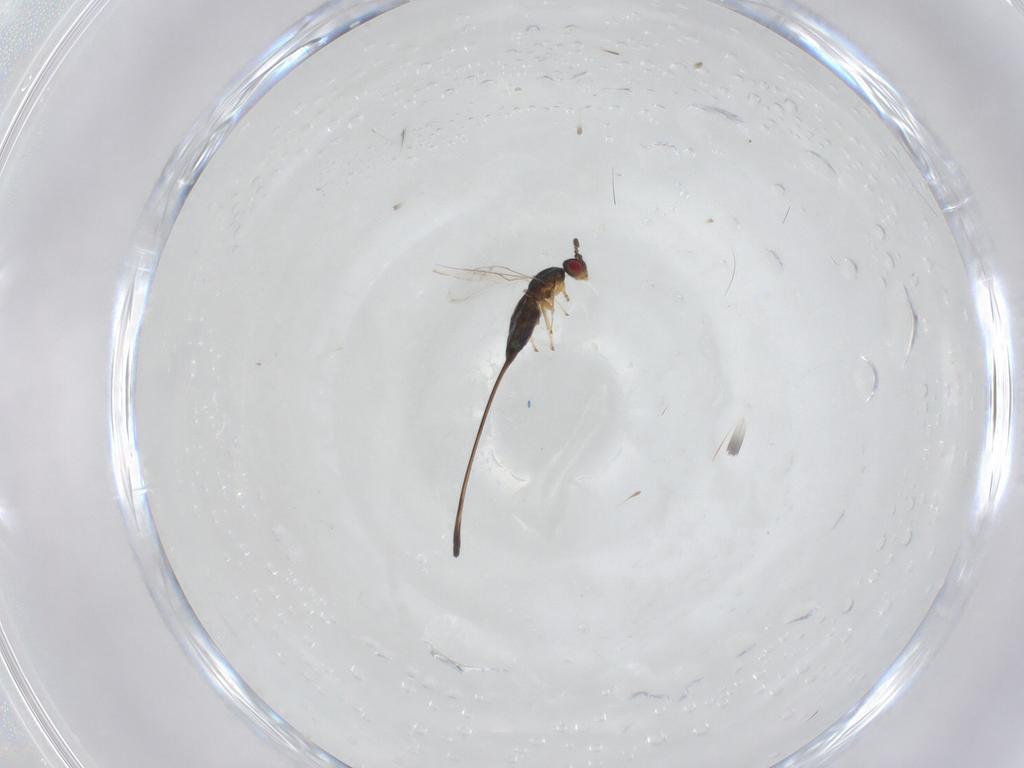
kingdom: Animalia
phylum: Arthropoda
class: Insecta
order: Hymenoptera
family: Pteromalidae
